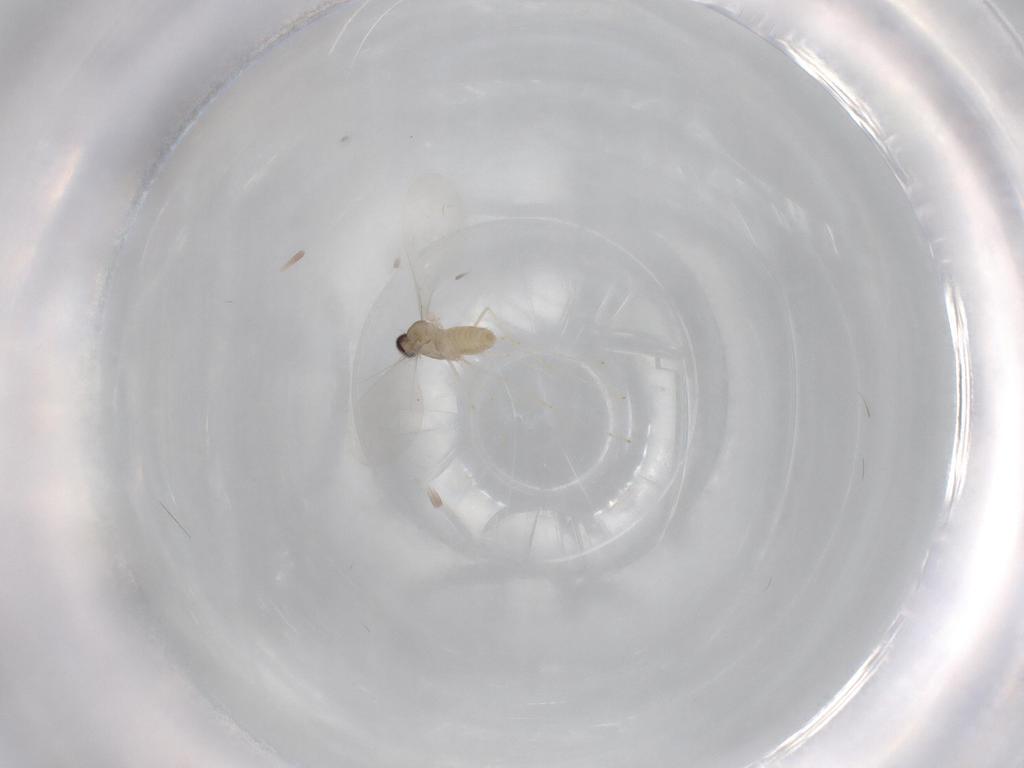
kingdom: Animalia
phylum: Arthropoda
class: Insecta
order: Diptera
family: Cecidomyiidae
